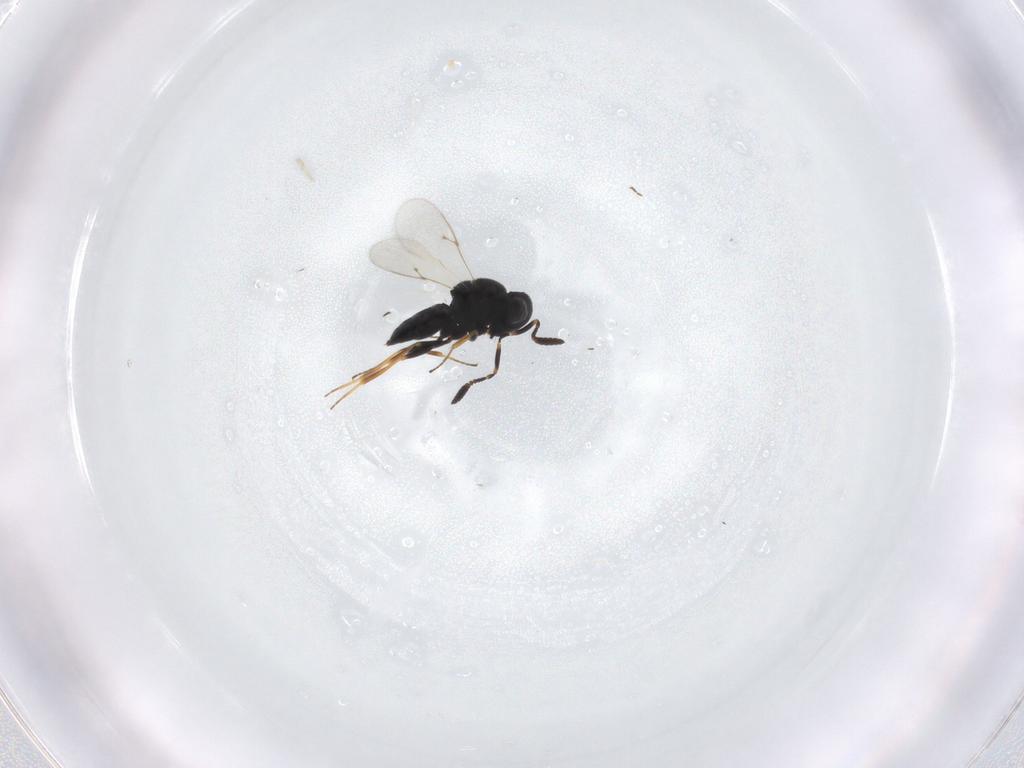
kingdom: Animalia
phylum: Arthropoda
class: Insecta
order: Hymenoptera
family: Scelionidae
